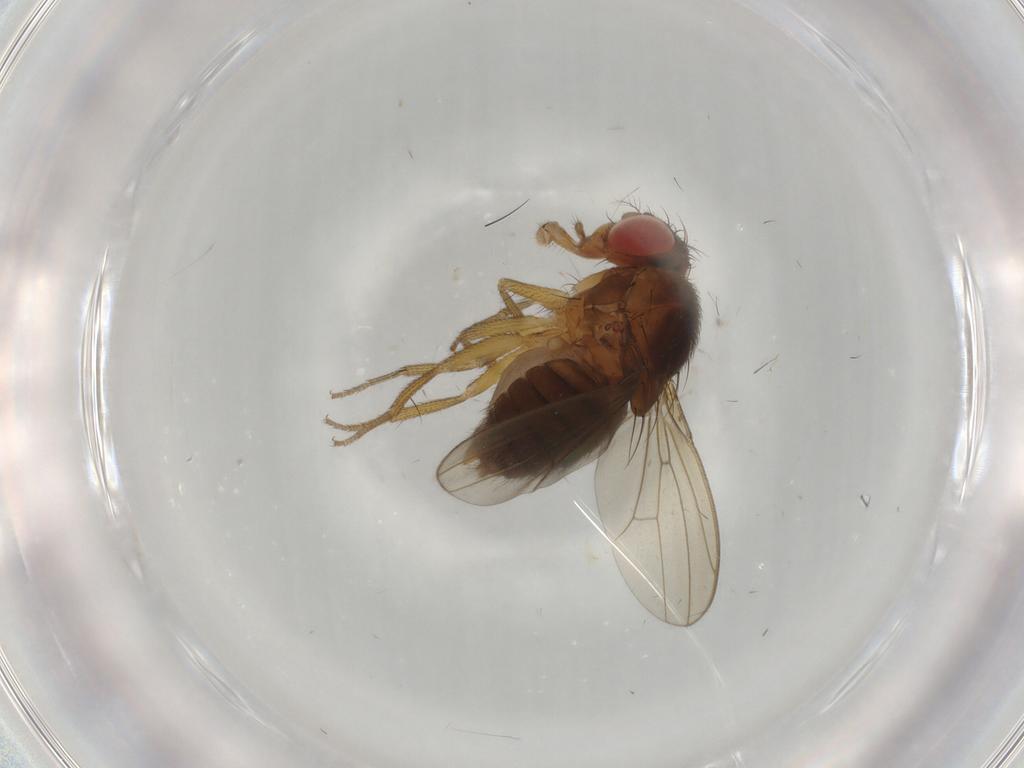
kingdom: Animalia
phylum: Arthropoda
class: Insecta
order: Diptera
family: Drosophilidae
